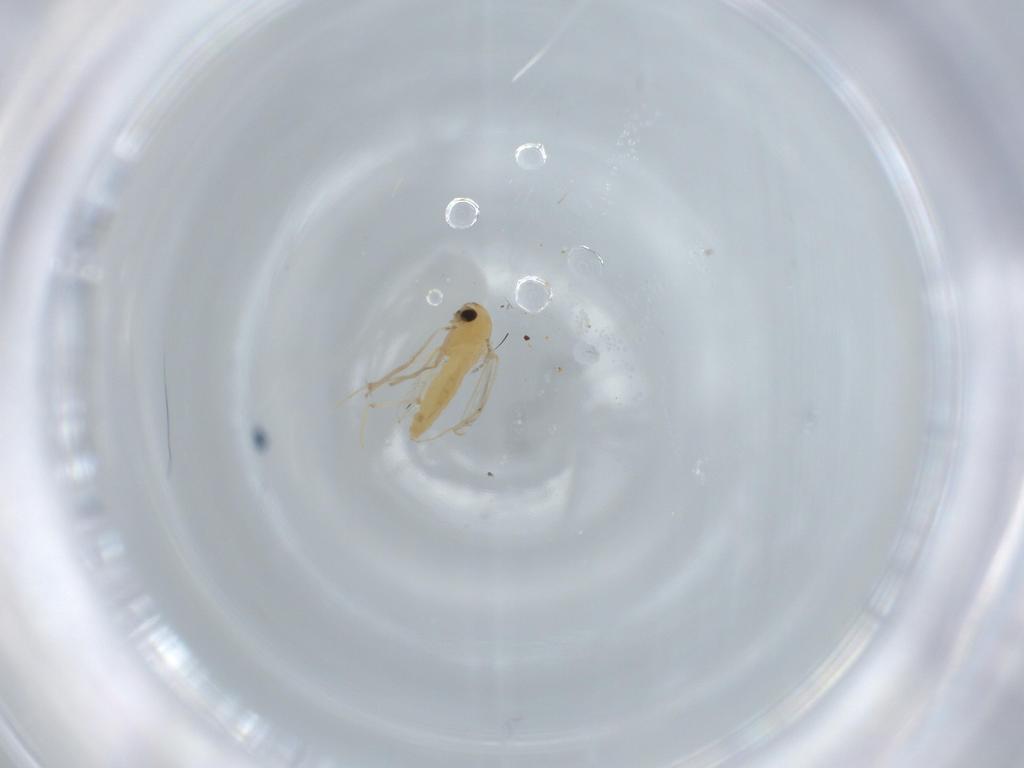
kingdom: Animalia
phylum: Arthropoda
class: Insecta
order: Diptera
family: Chironomidae
